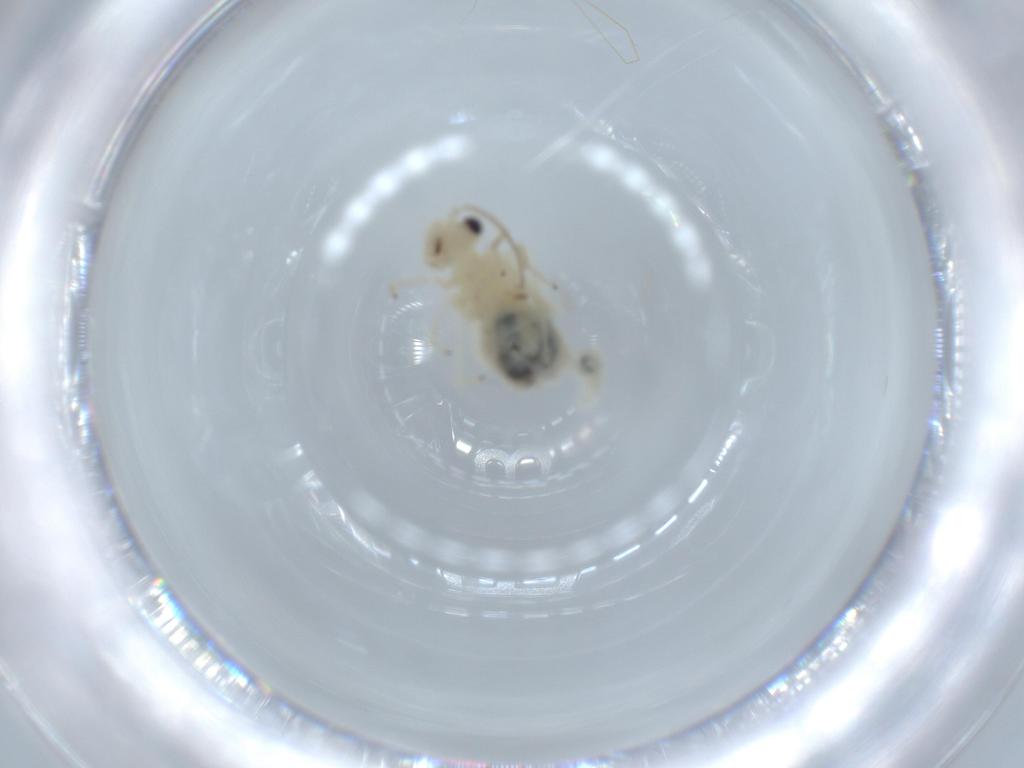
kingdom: Animalia
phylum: Arthropoda
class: Insecta
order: Psocodea
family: Caeciliusidae
